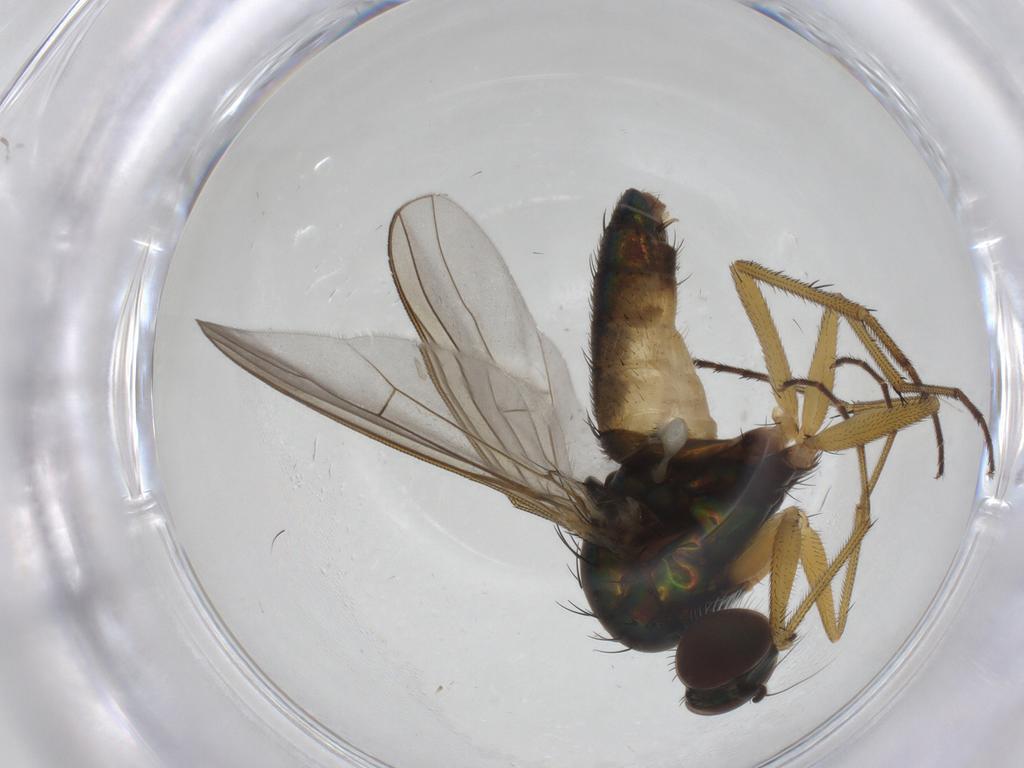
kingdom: Animalia
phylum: Arthropoda
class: Insecta
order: Diptera
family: Dolichopodidae
